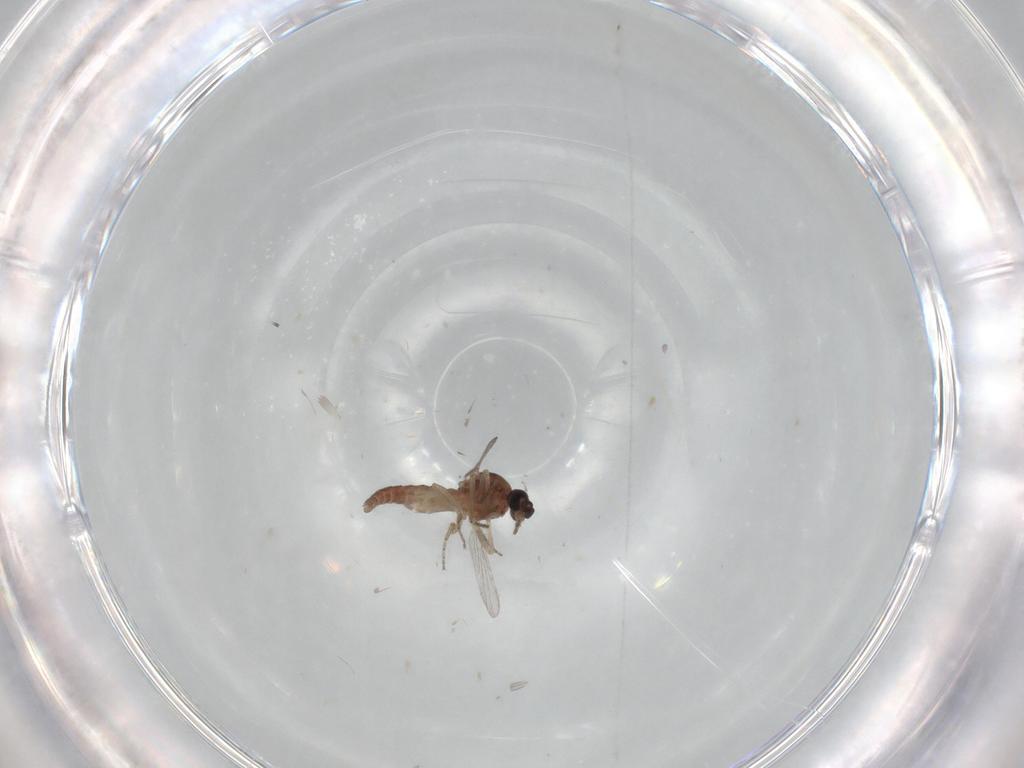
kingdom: Animalia
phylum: Arthropoda
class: Insecta
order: Diptera
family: Ceratopogonidae
